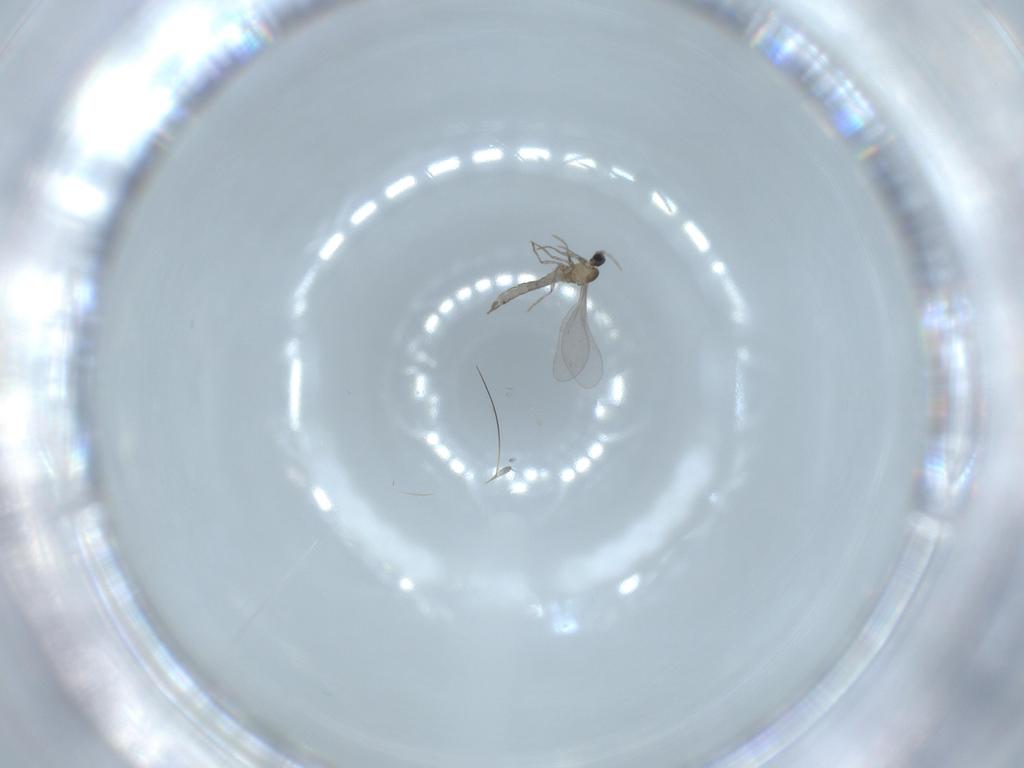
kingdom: Animalia
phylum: Arthropoda
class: Insecta
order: Diptera
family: Cecidomyiidae
